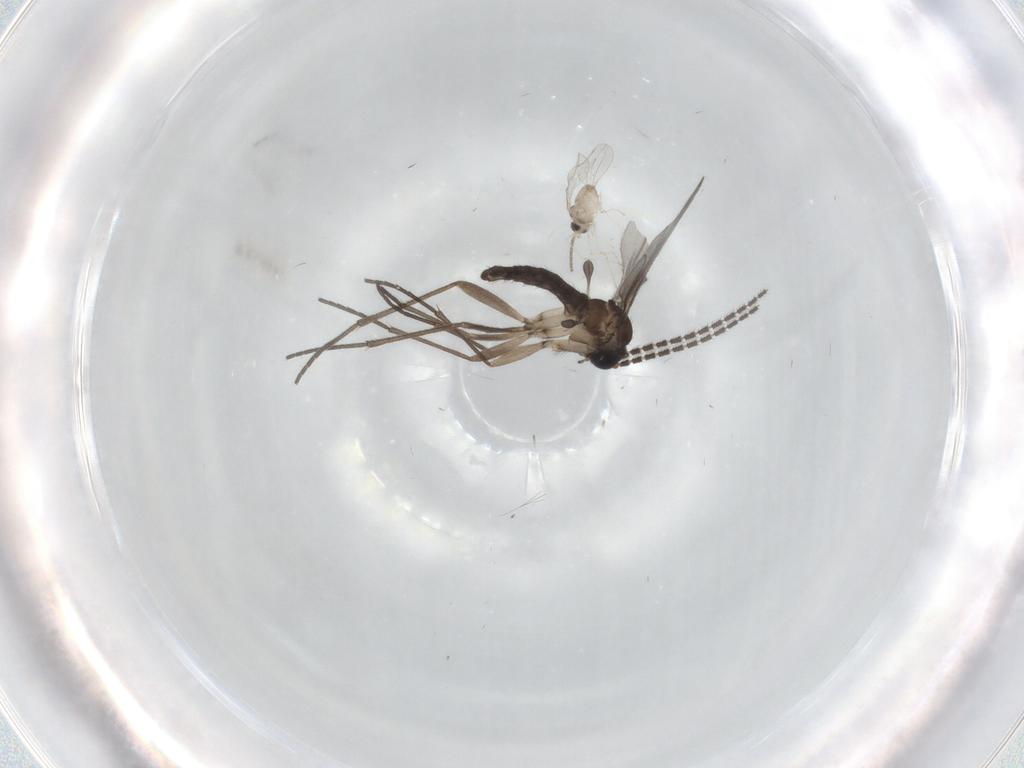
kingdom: Animalia
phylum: Arthropoda
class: Insecta
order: Diptera
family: Sciaridae
